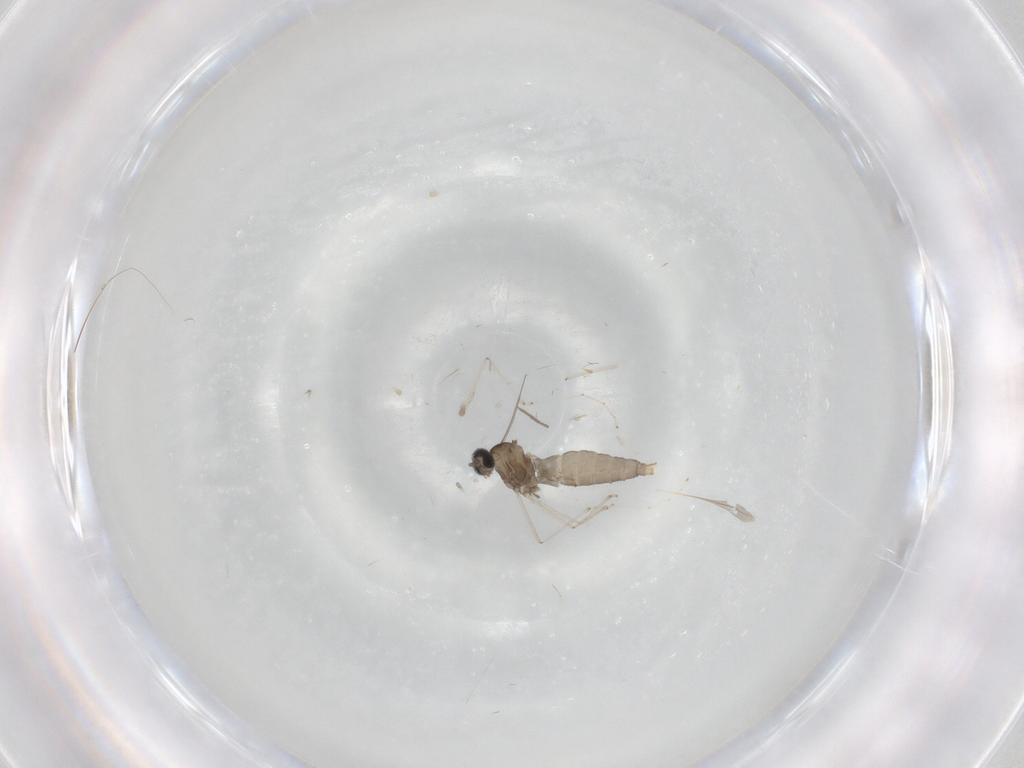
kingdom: Animalia
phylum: Arthropoda
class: Insecta
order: Diptera
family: Cecidomyiidae
